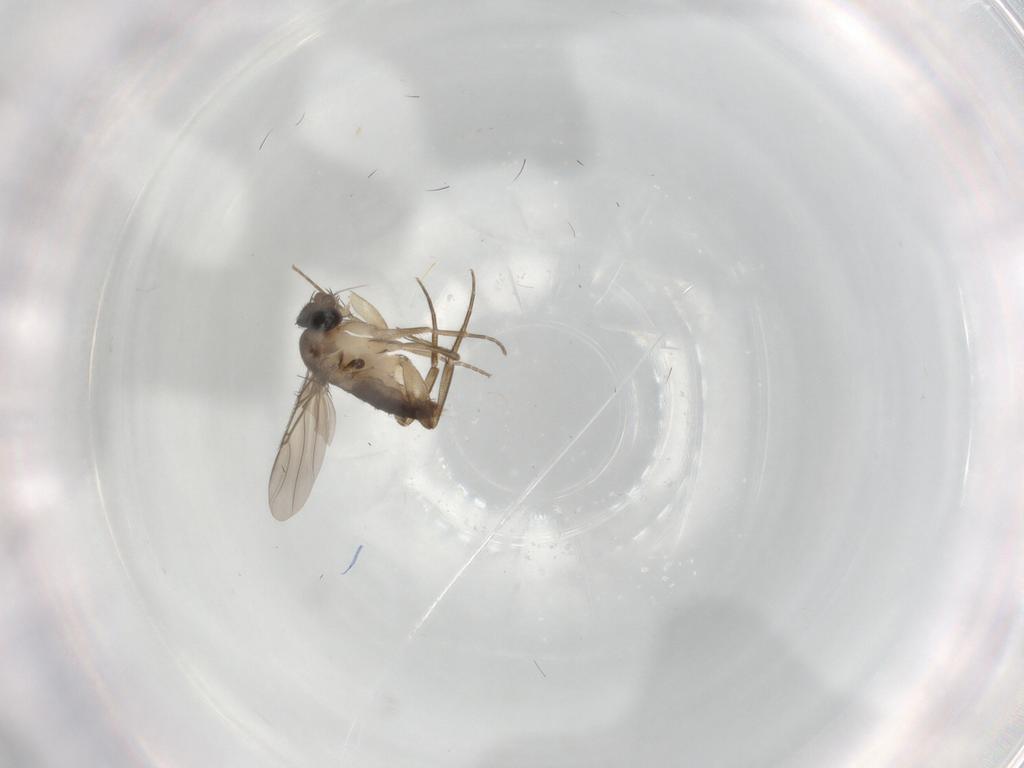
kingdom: Animalia
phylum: Arthropoda
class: Insecta
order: Diptera
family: Phoridae
